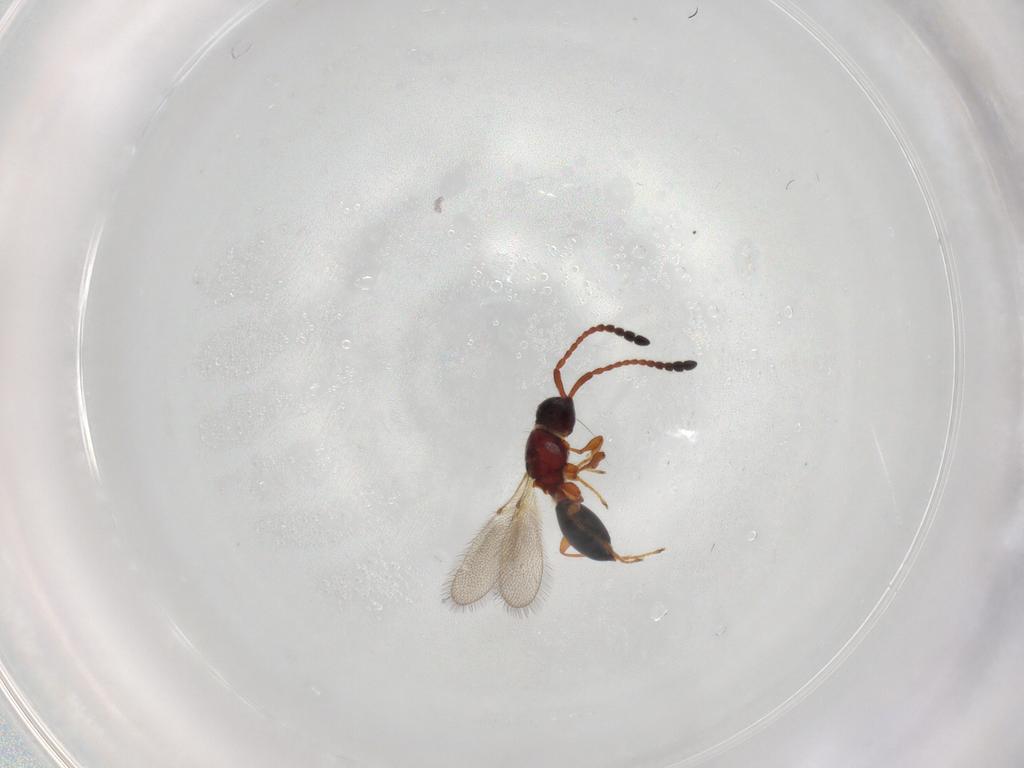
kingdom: Animalia
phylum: Arthropoda
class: Insecta
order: Hymenoptera
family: Diapriidae
